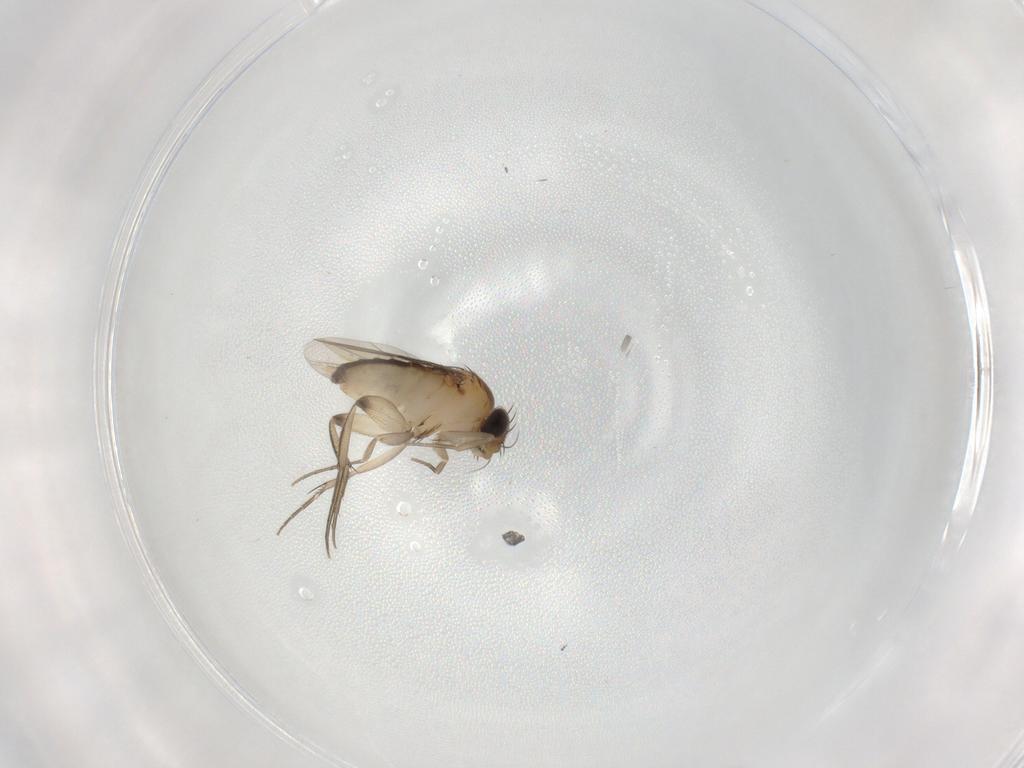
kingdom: Animalia
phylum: Arthropoda
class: Insecta
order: Diptera
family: Phoridae
